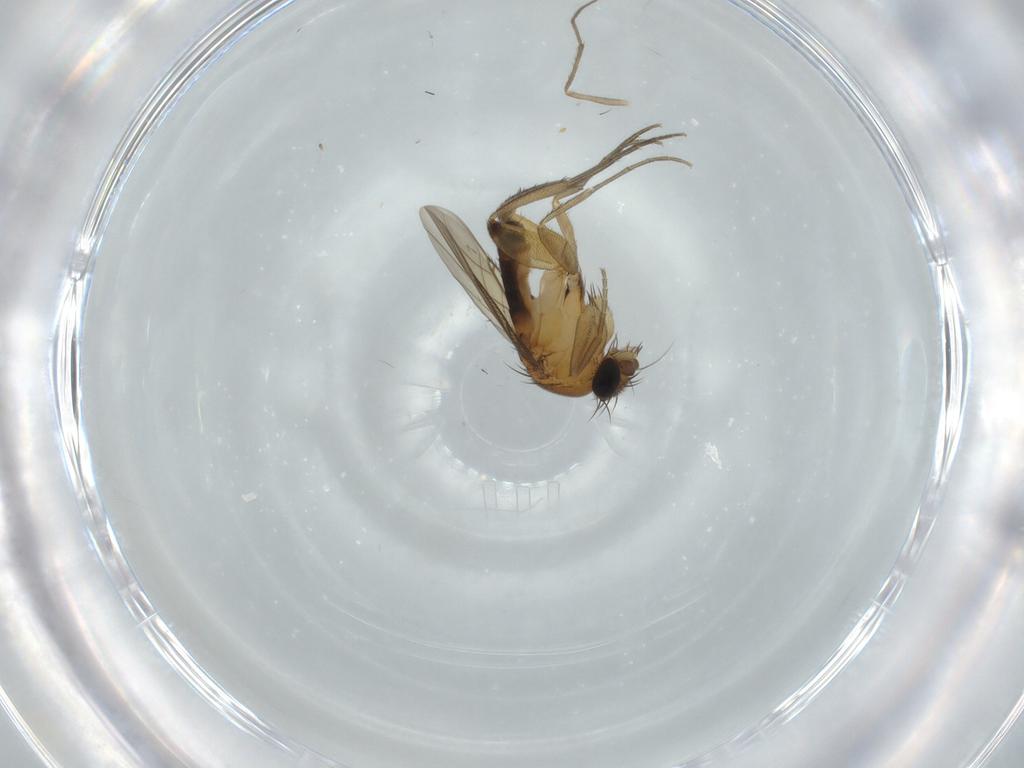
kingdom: Animalia
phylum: Arthropoda
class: Insecta
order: Diptera
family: Phoridae
